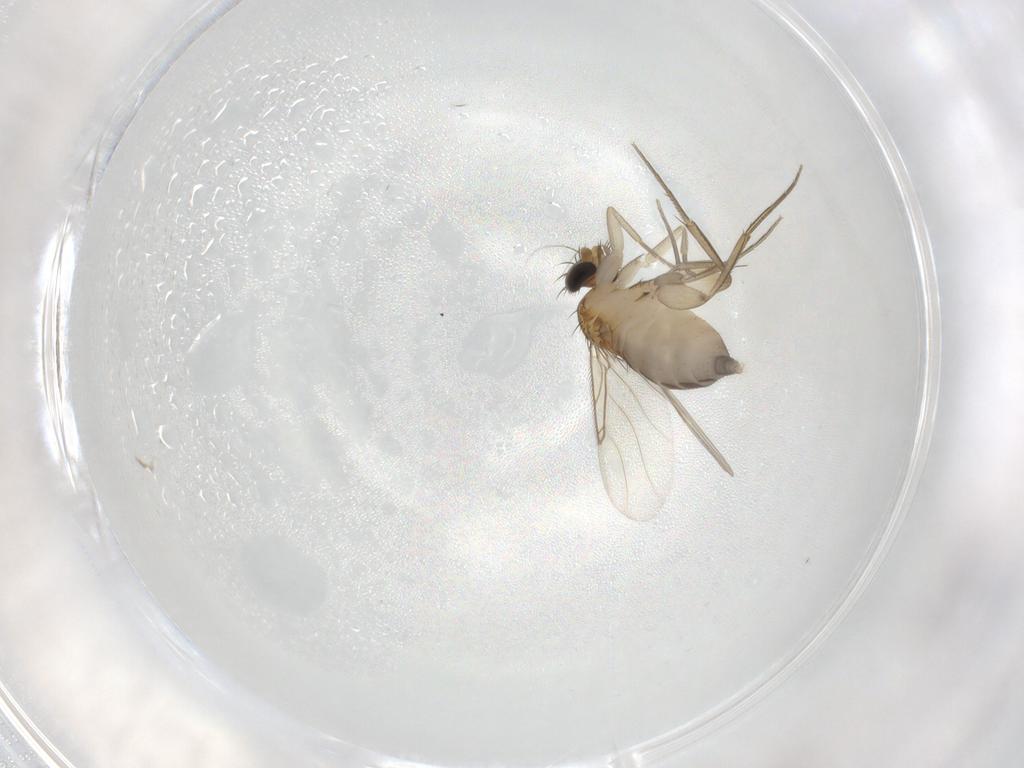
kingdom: Animalia
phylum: Arthropoda
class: Insecta
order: Diptera
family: Phoridae
